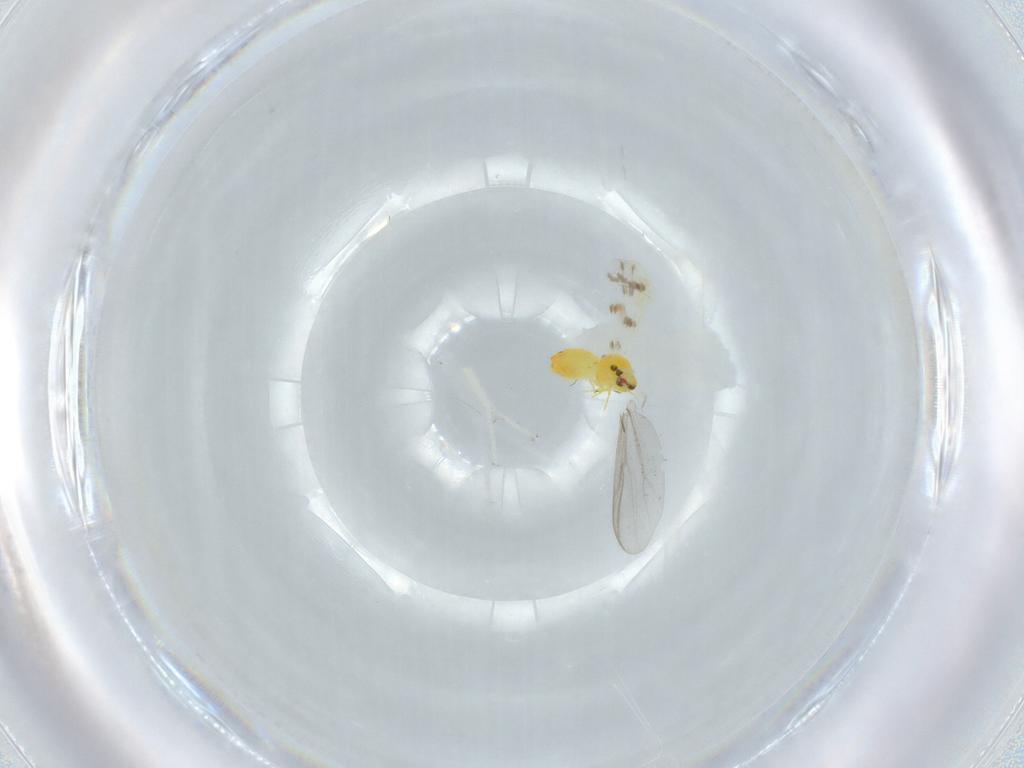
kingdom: Animalia
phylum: Arthropoda
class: Insecta
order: Hemiptera
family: Aleyrodidae
